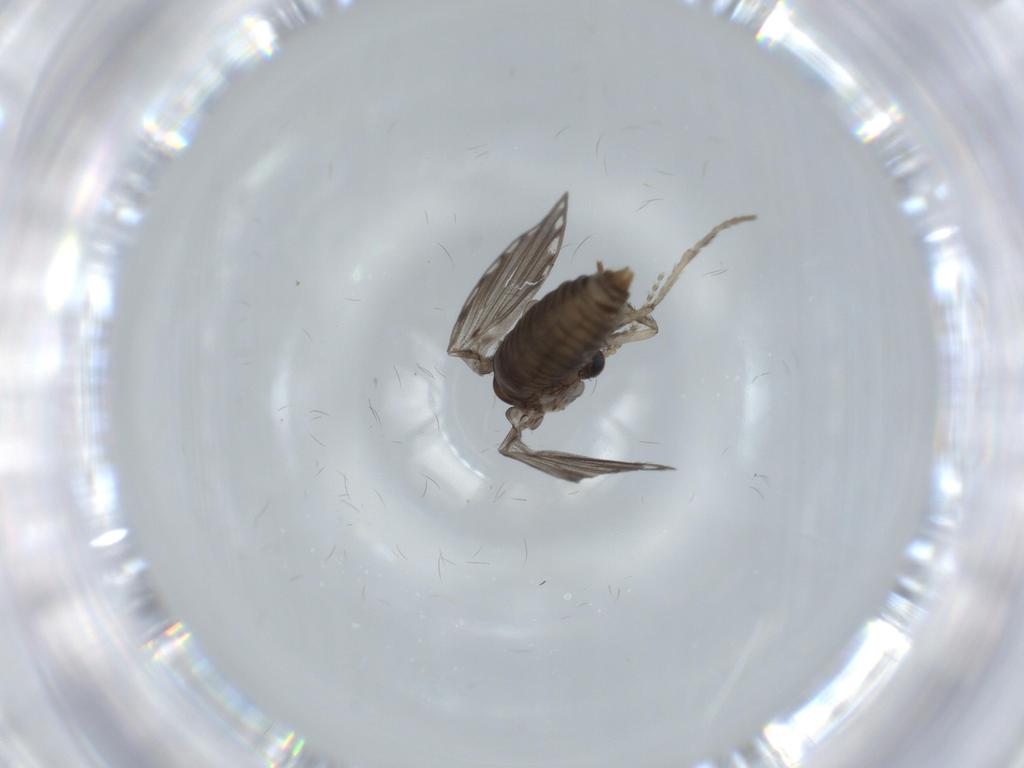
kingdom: Animalia
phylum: Arthropoda
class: Insecta
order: Diptera
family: Psychodidae
